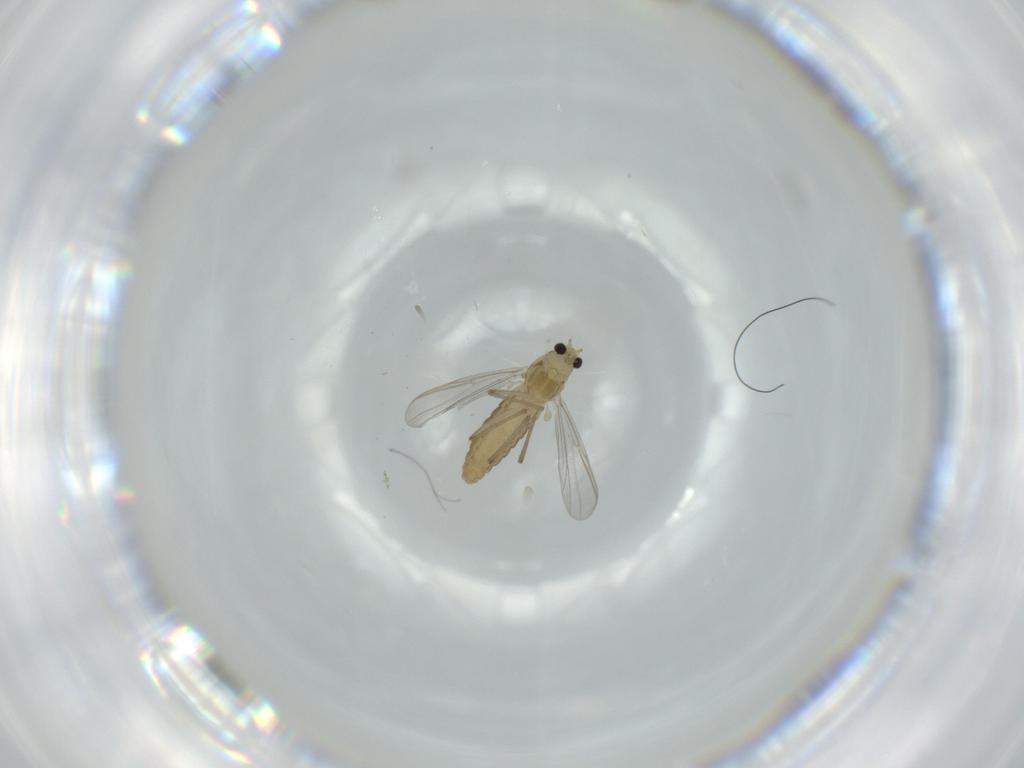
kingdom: Animalia
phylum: Arthropoda
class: Insecta
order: Diptera
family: Chironomidae
